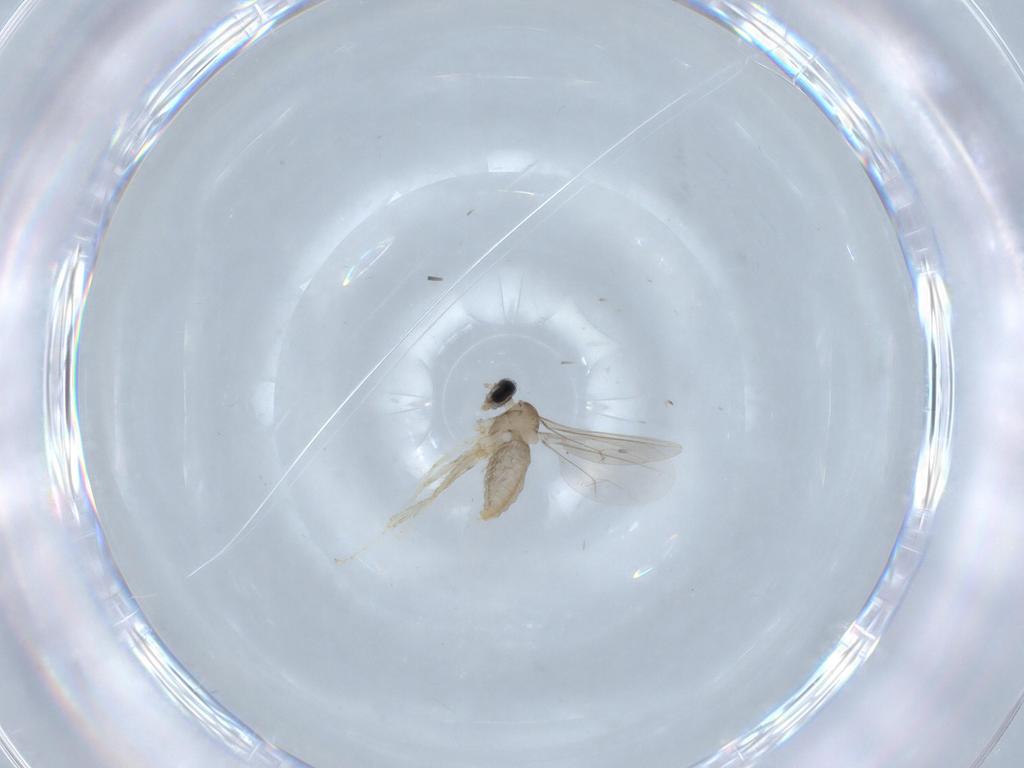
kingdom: Animalia
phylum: Arthropoda
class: Insecta
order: Diptera
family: Cecidomyiidae
